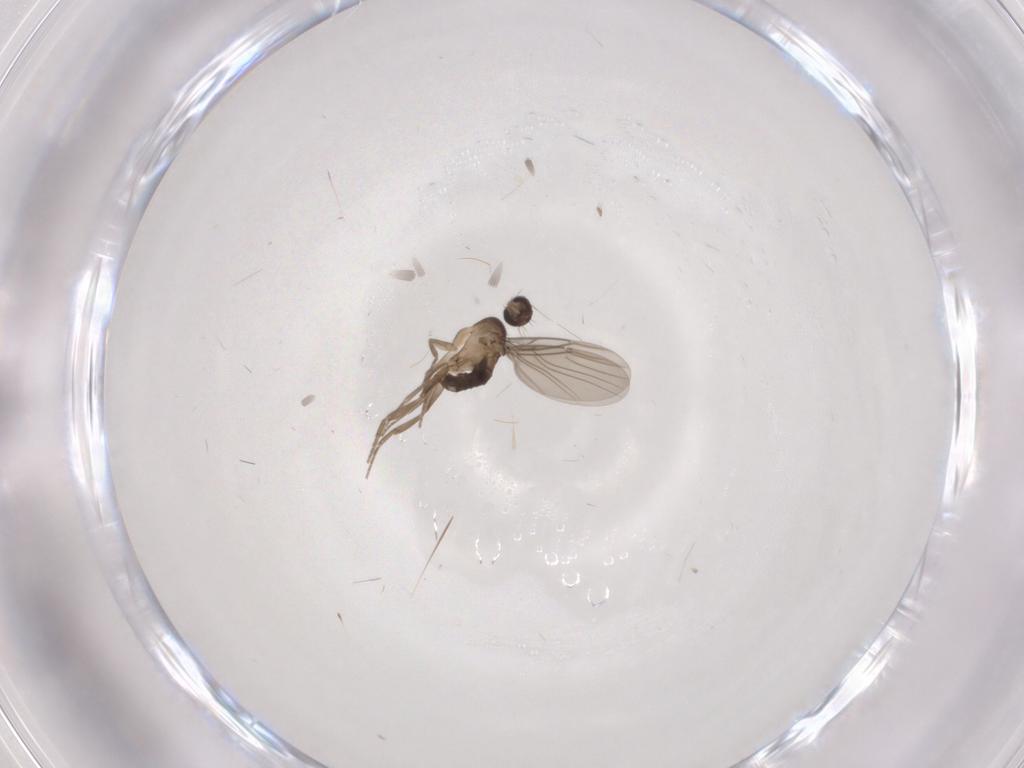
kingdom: Animalia
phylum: Arthropoda
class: Insecta
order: Diptera
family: Phoridae
